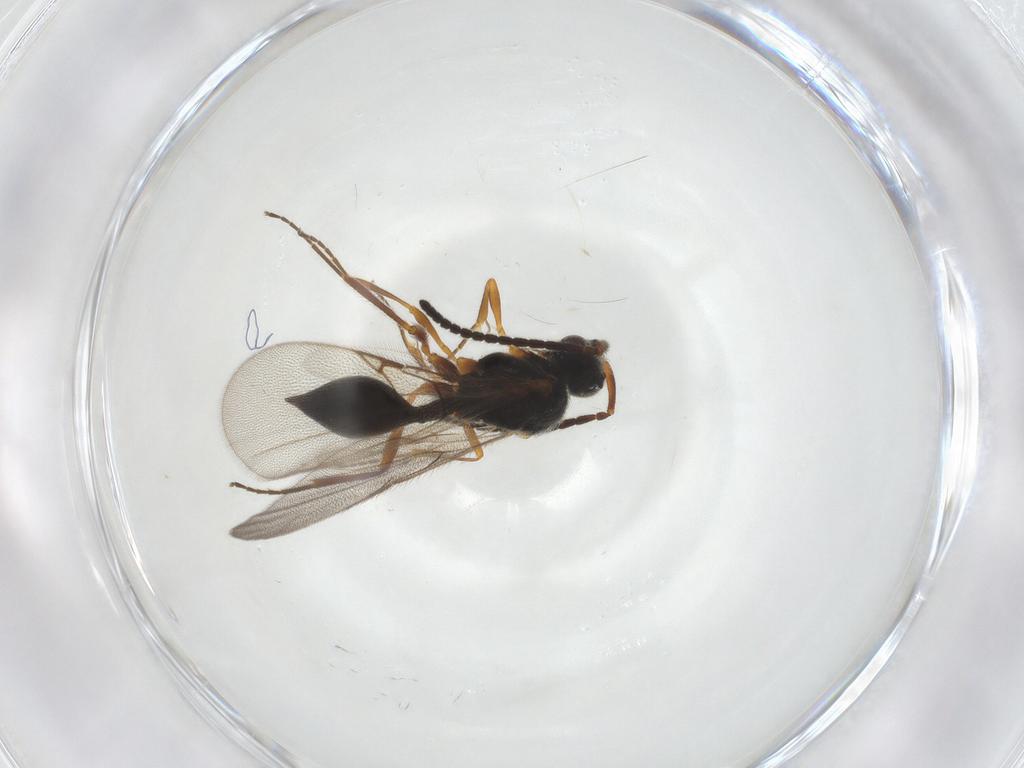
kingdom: Animalia
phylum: Arthropoda
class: Insecta
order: Hymenoptera
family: Diapriidae
